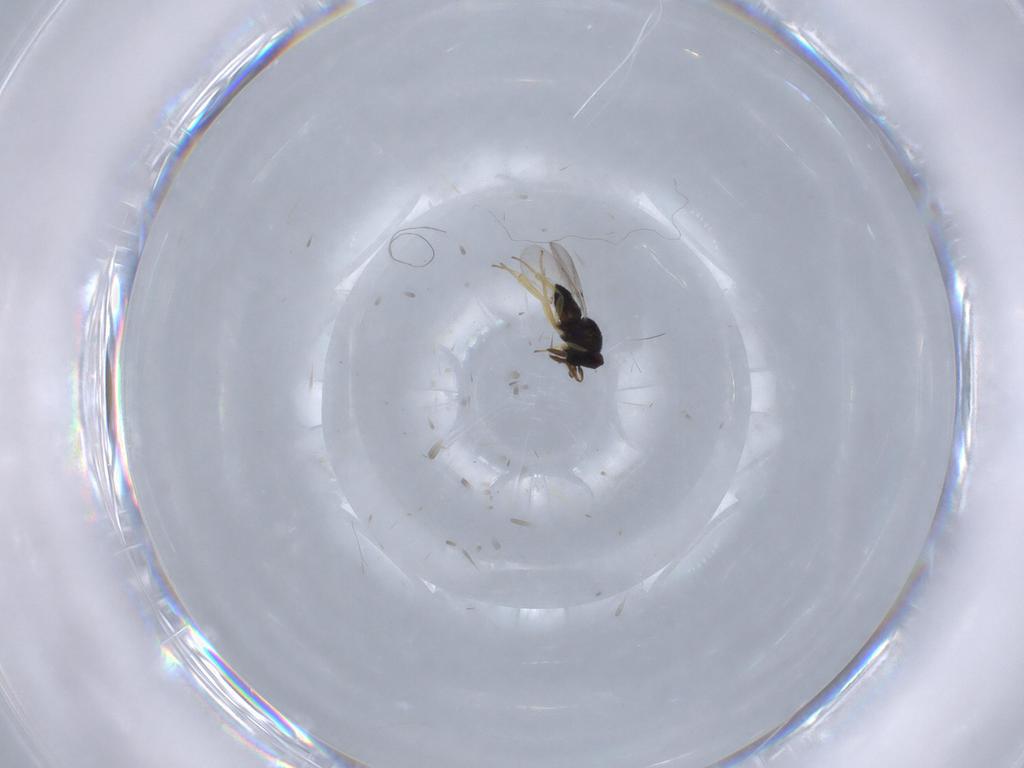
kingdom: Animalia
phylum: Arthropoda
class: Insecta
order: Hymenoptera
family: Encyrtidae
